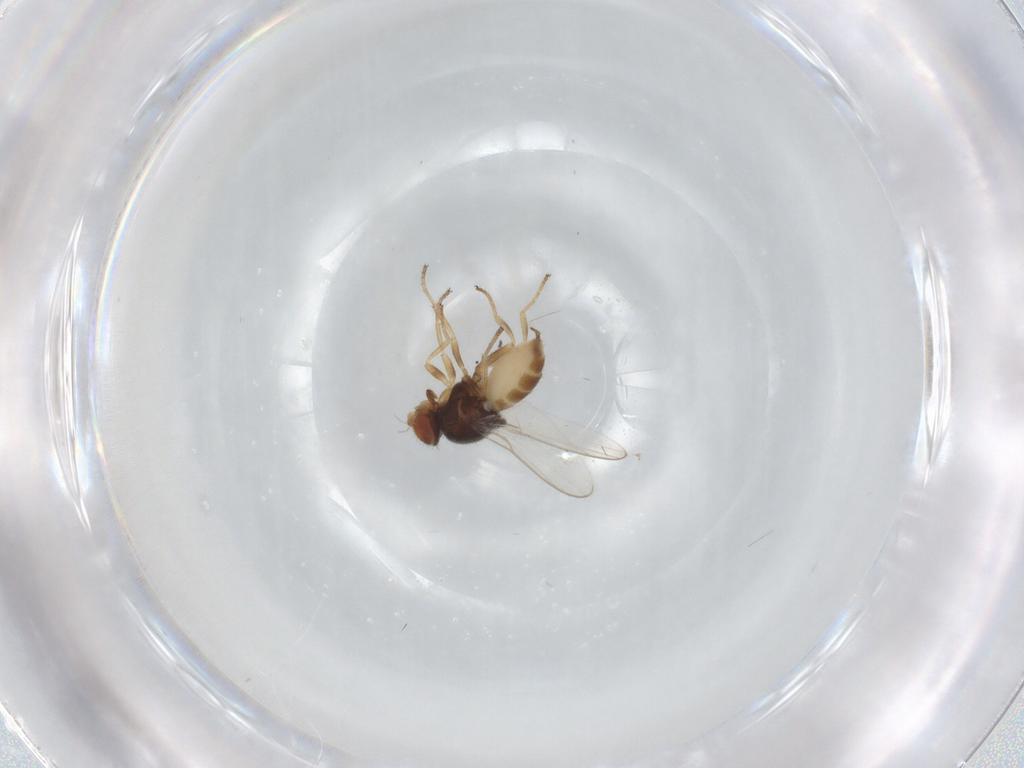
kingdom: Animalia
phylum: Arthropoda
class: Insecta
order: Diptera
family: Chloropidae
